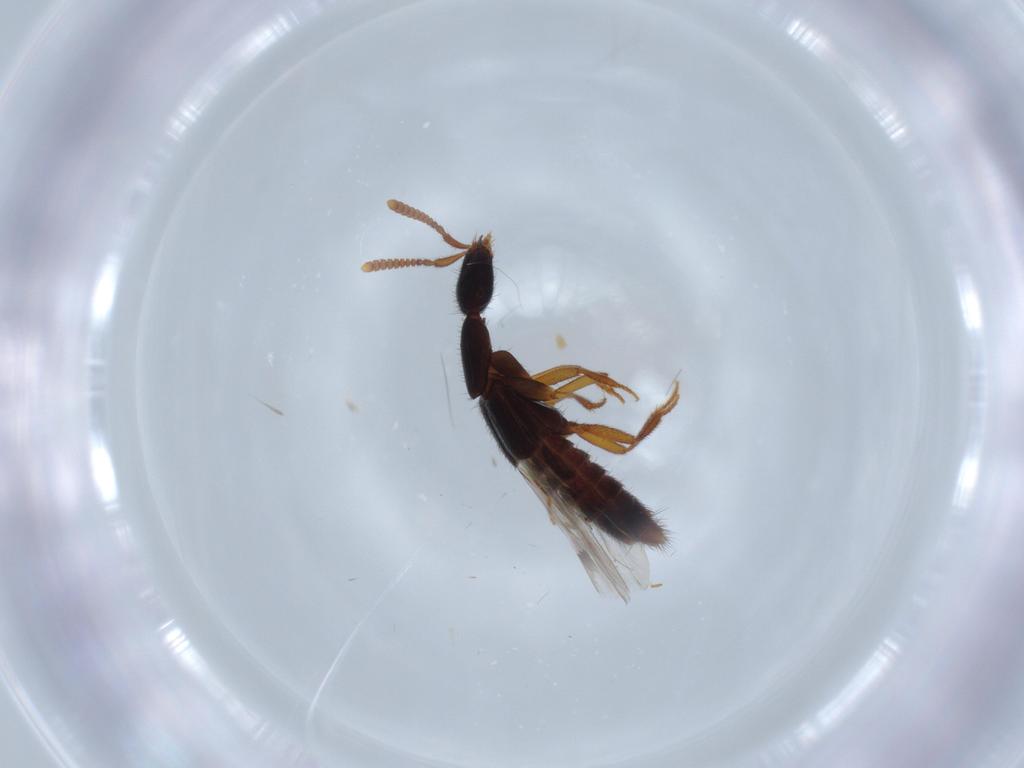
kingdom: Animalia
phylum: Arthropoda
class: Insecta
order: Coleoptera
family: Staphylinidae
